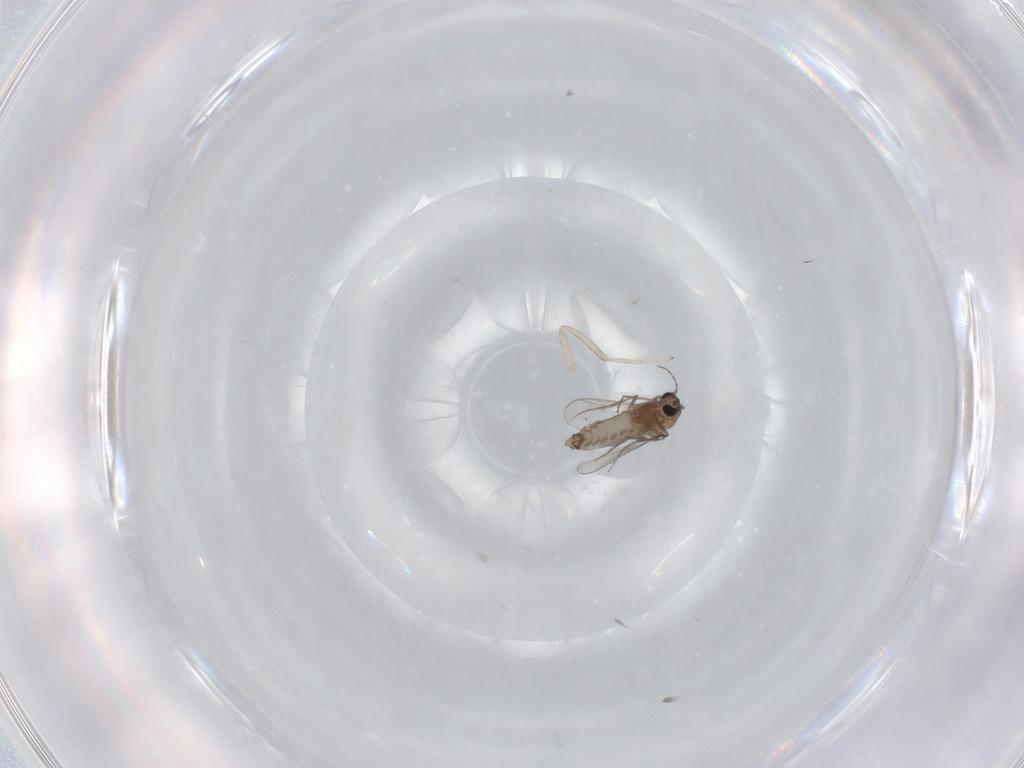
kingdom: Animalia
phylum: Arthropoda
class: Insecta
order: Diptera
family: Chironomidae
